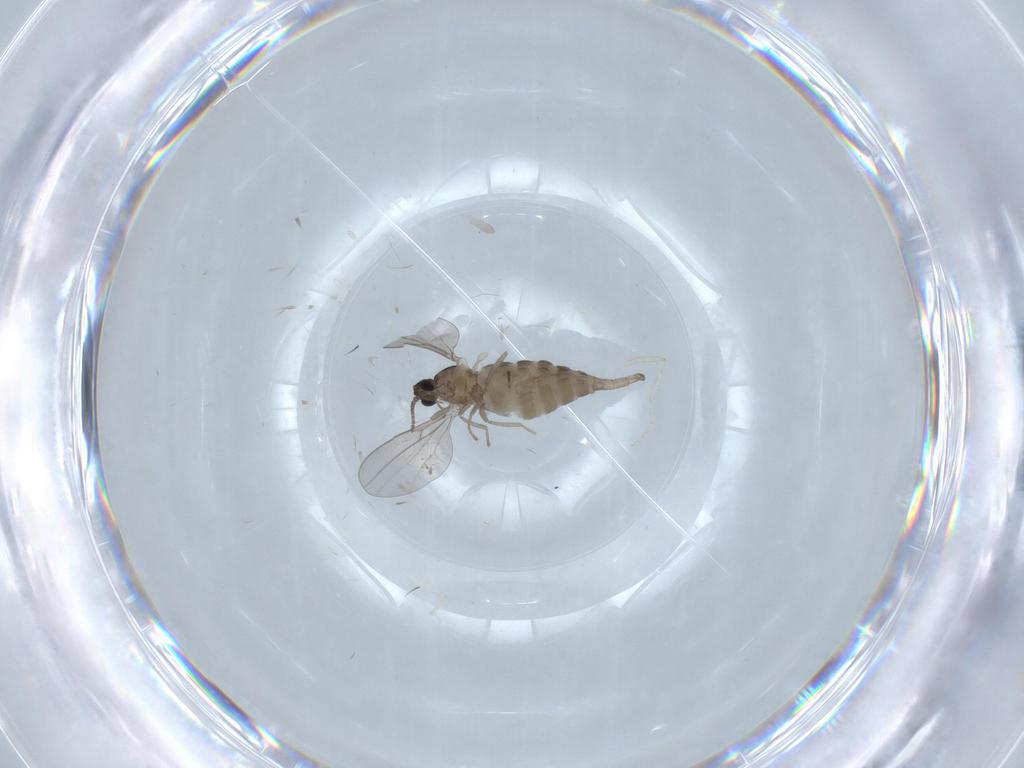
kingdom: Animalia
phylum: Arthropoda
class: Insecta
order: Diptera
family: Cecidomyiidae
